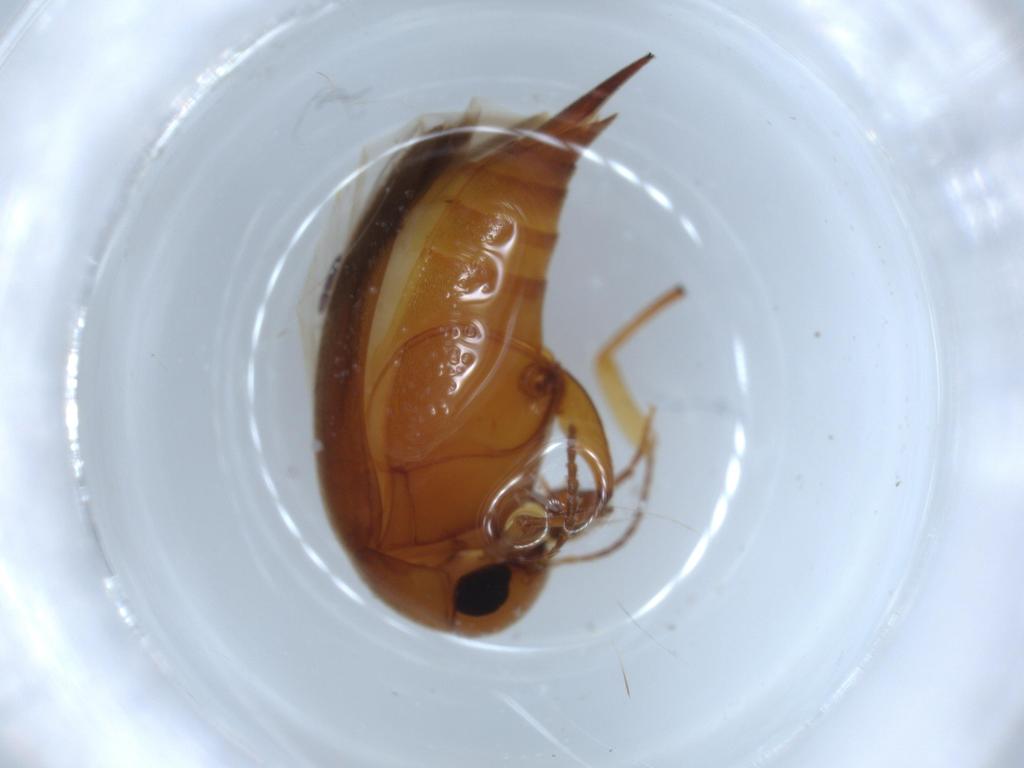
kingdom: Animalia
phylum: Arthropoda
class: Insecta
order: Coleoptera
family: Mordellidae
